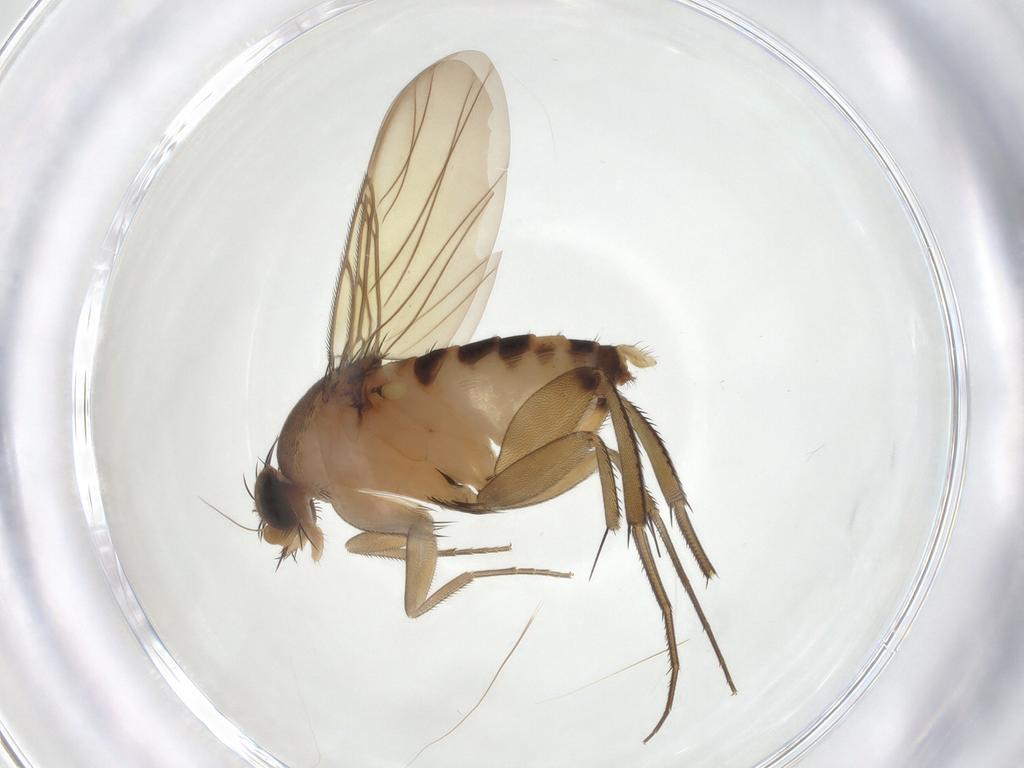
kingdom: Animalia
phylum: Arthropoda
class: Insecta
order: Diptera
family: Phoridae
